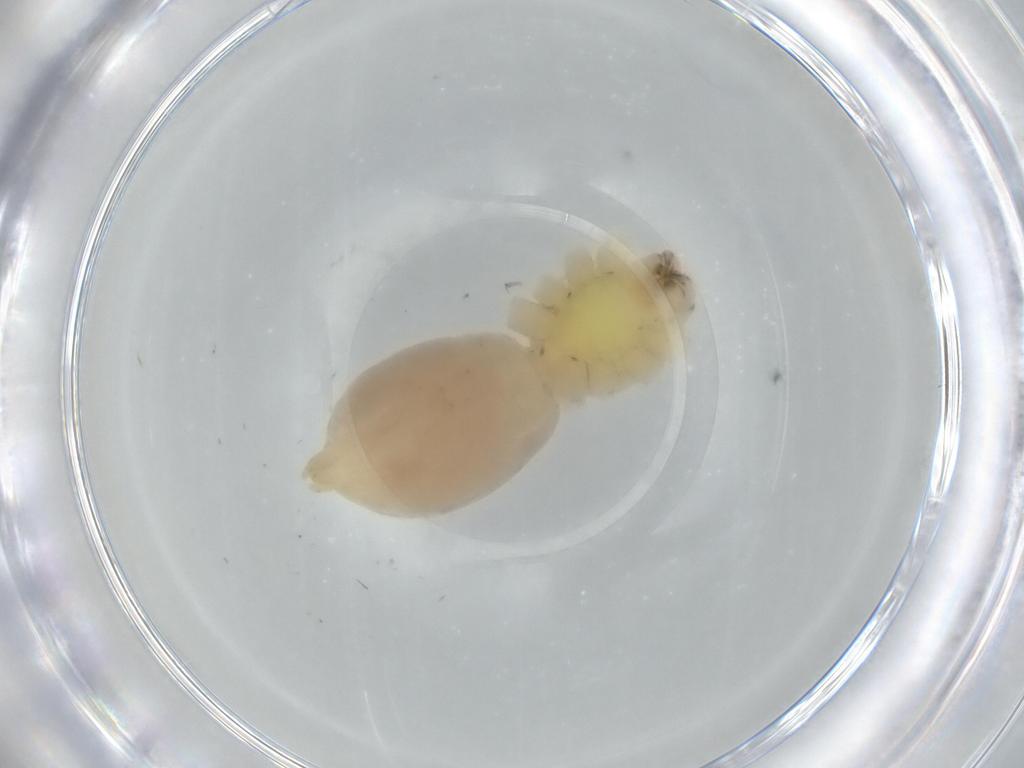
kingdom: Animalia
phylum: Arthropoda
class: Arachnida
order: Araneae
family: Anyphaenidae
